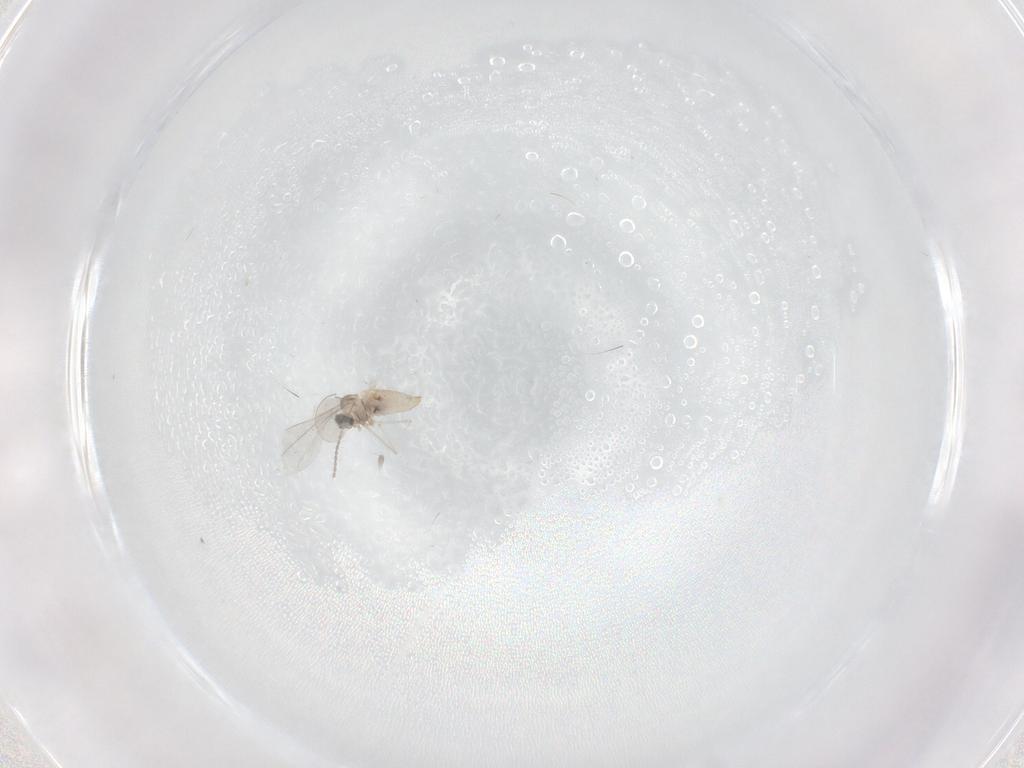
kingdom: Animalia
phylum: Arthropoda
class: Insecta
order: Diptera
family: Cecidomyiidae
